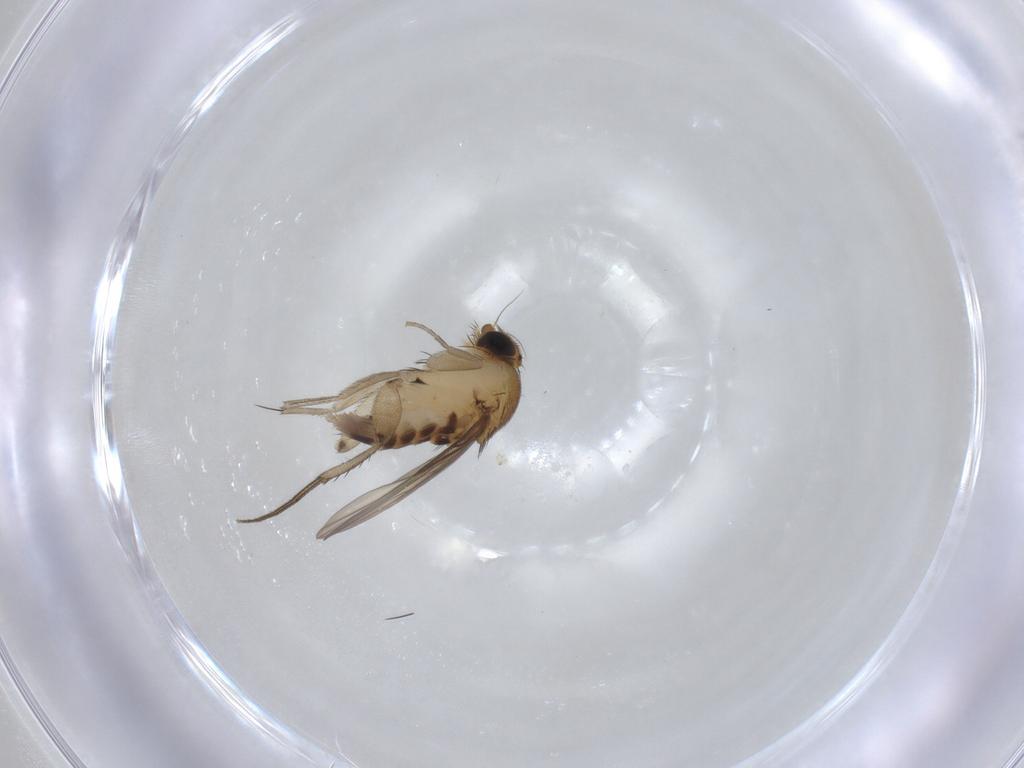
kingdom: Animalia
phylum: Arthropoda
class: Insecta
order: Diptera
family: Phoridae
